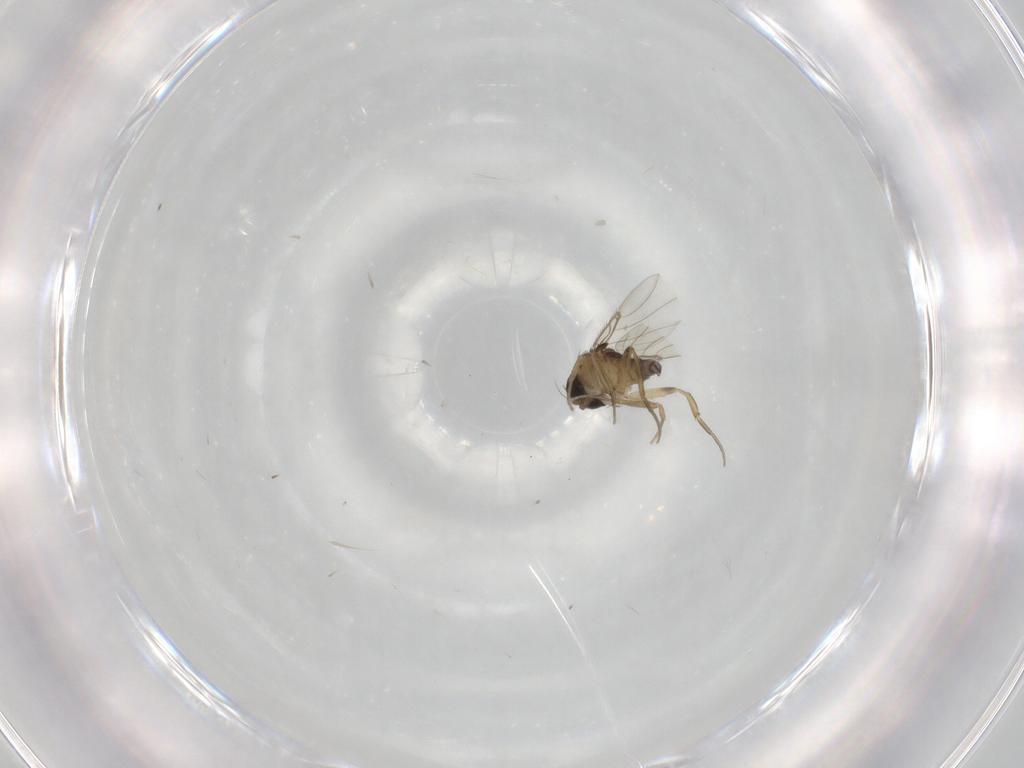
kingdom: Animalia
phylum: Arthropoda
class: Insecta
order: Diptera
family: Phoridae
